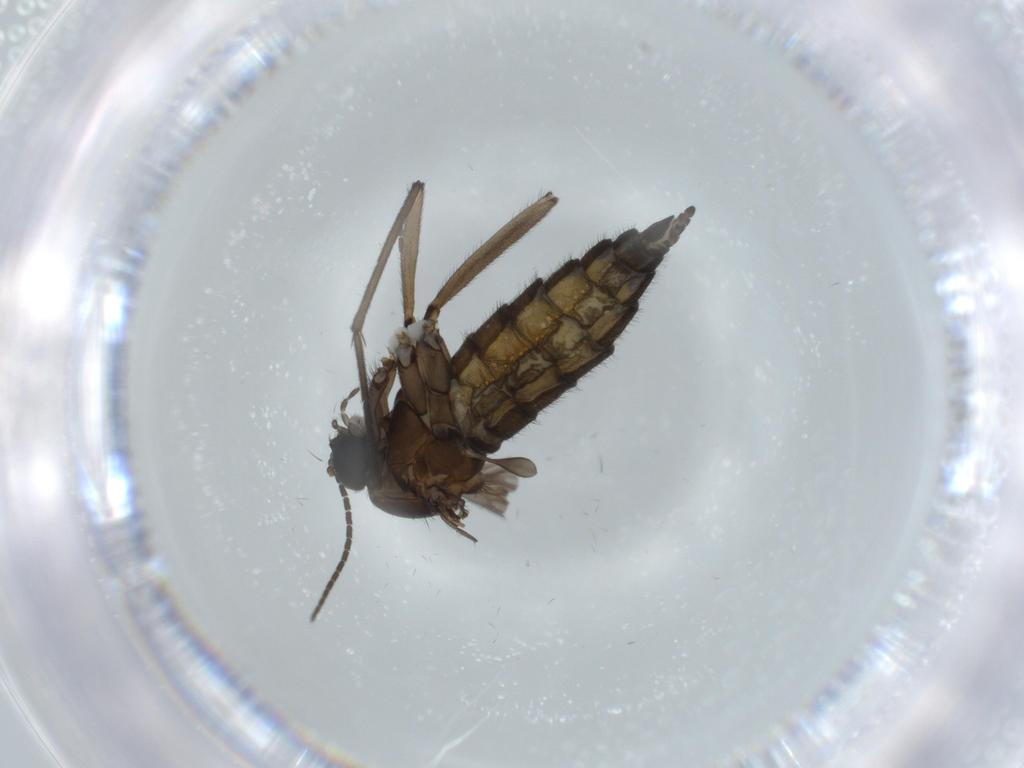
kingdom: Animalia
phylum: Arthropoda
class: Insecta
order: Diptera
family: Sciaridae
